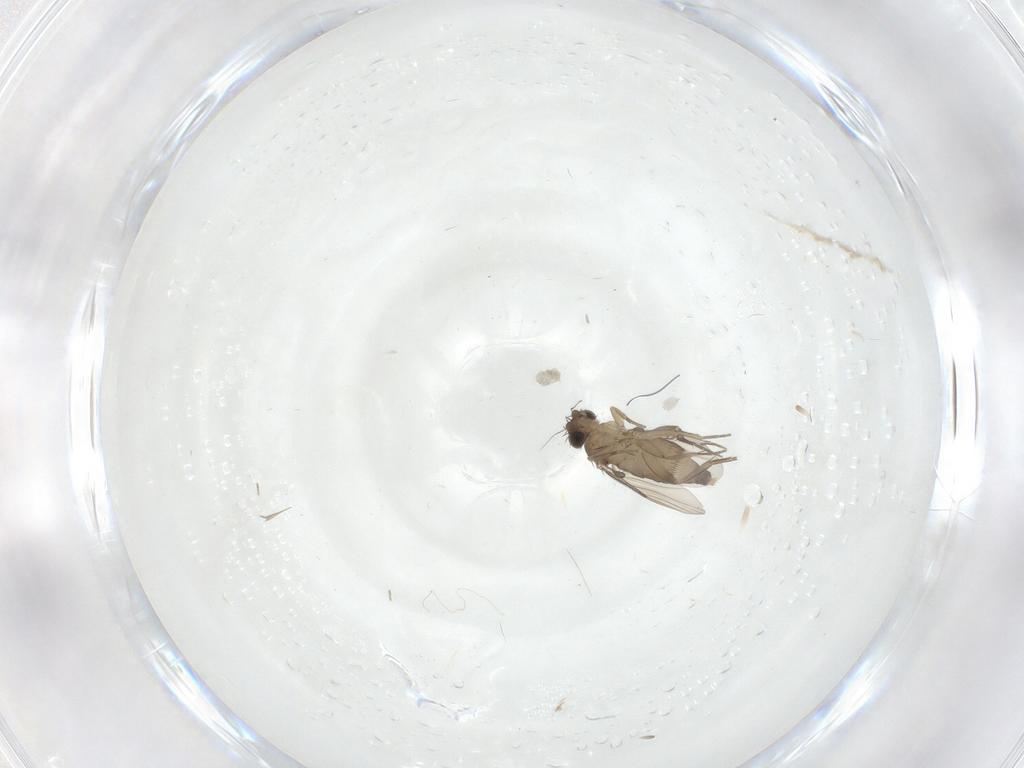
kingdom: Animalia
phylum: Arthropoda
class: Insecta
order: Diptera
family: Phoridae
